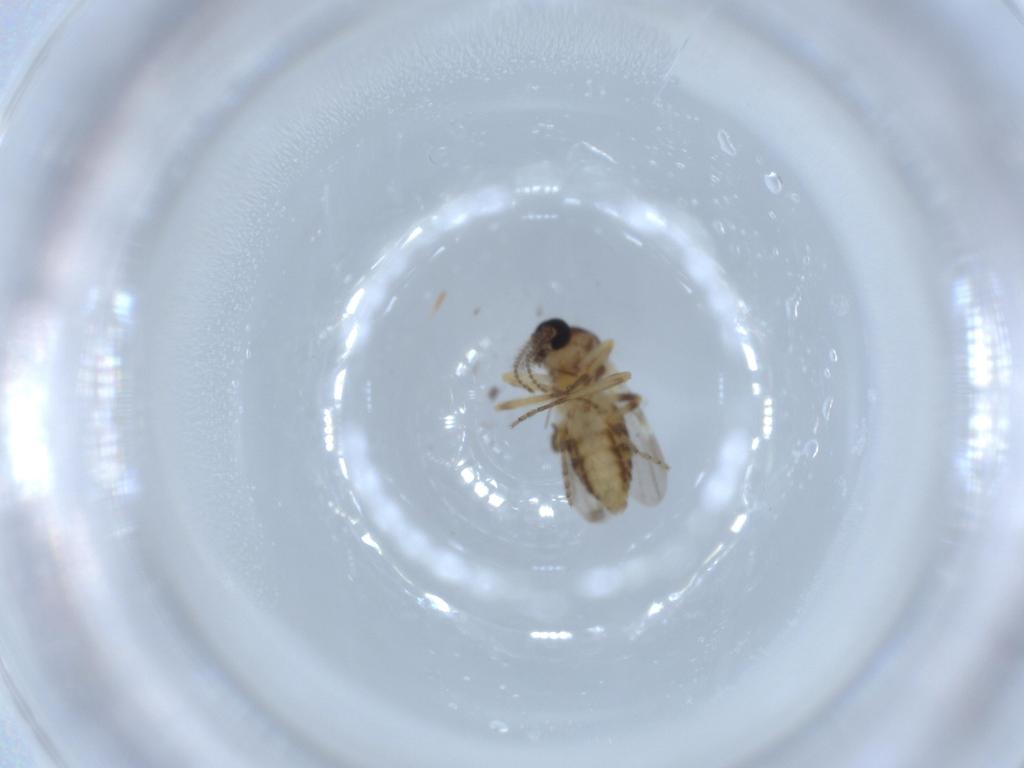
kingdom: Animalia
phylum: Arthropoda
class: Insecta
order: Diptera
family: Ceratopogonidae
